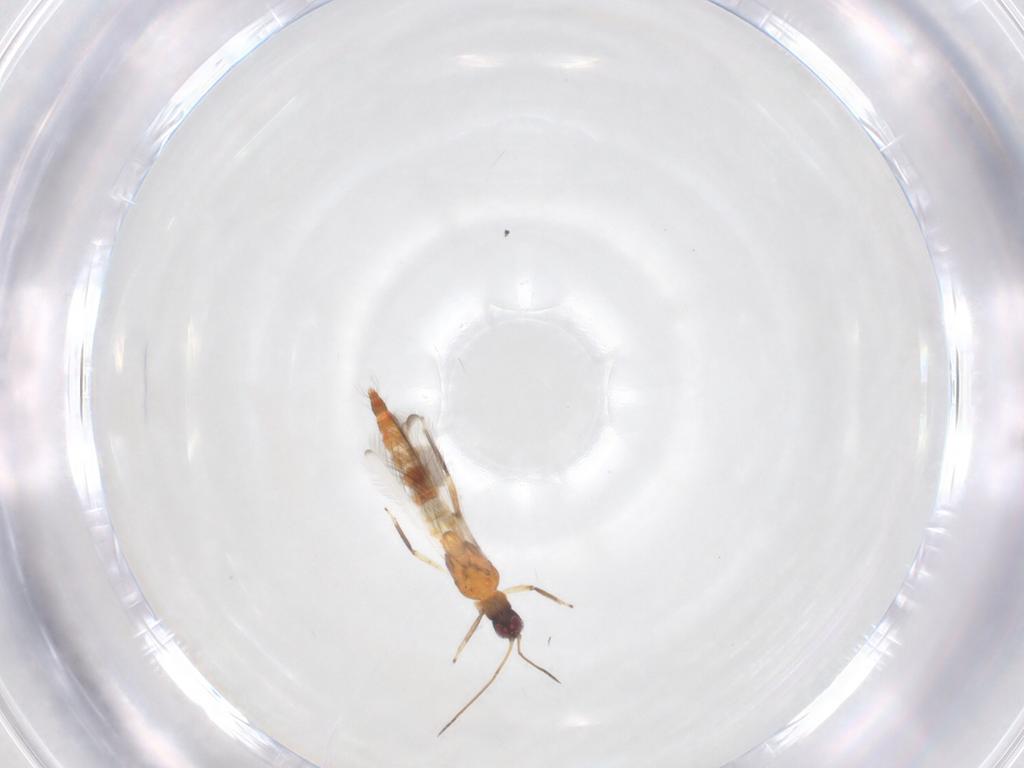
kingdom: Animalia
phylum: Arthropoda
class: Insecta
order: Thysanoptera
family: Aeolothripidae
